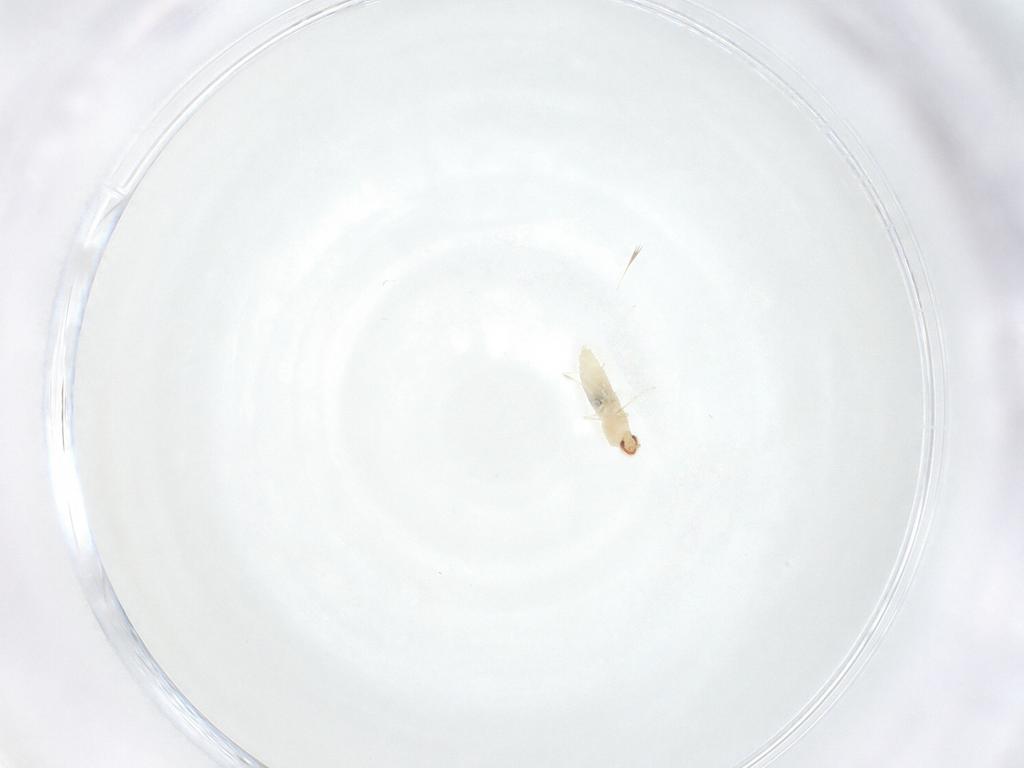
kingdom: Animalia
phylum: Arthropoda
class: Insecta
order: Diptera
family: Cecidomyiidae
